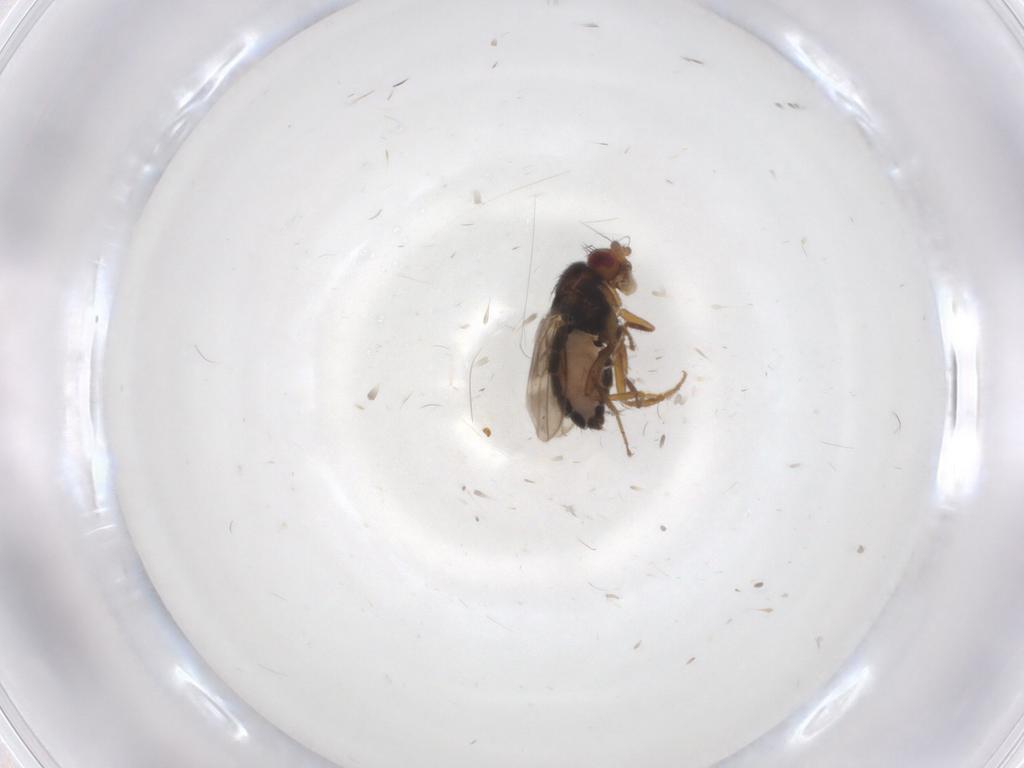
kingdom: Animalia
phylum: Arthropoda
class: Insecta
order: Diptera
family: Sphaeroceridae
